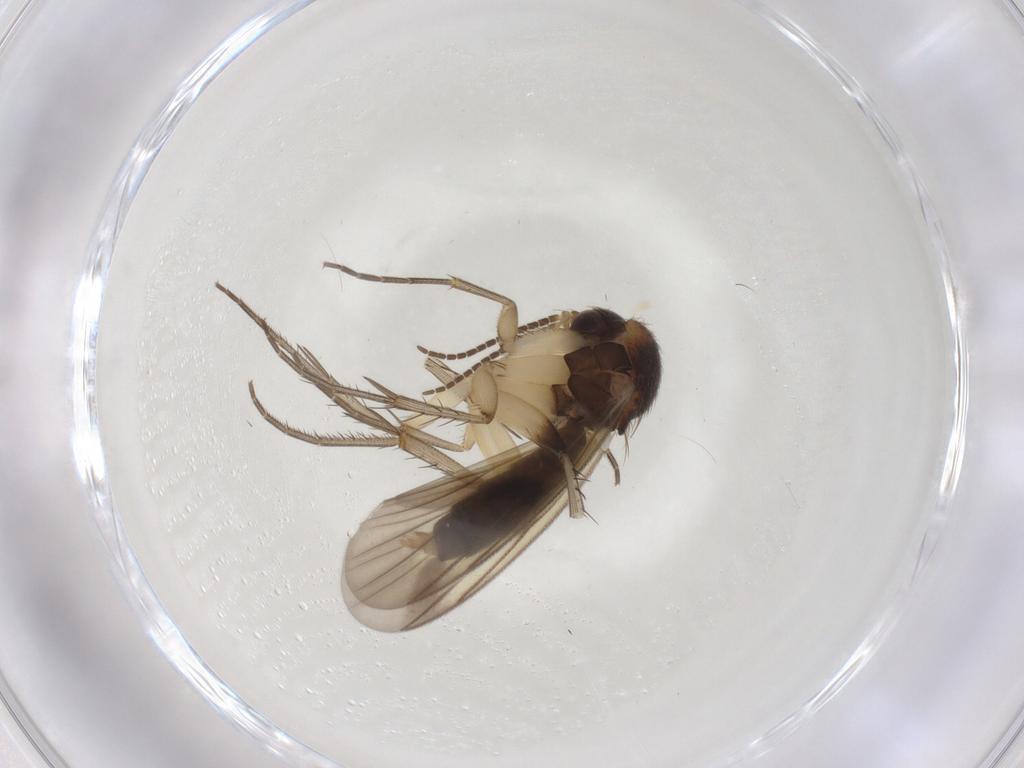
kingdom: Animalia
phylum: Arthropoda
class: Insecta
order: Diptera
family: Mycetophilidae
